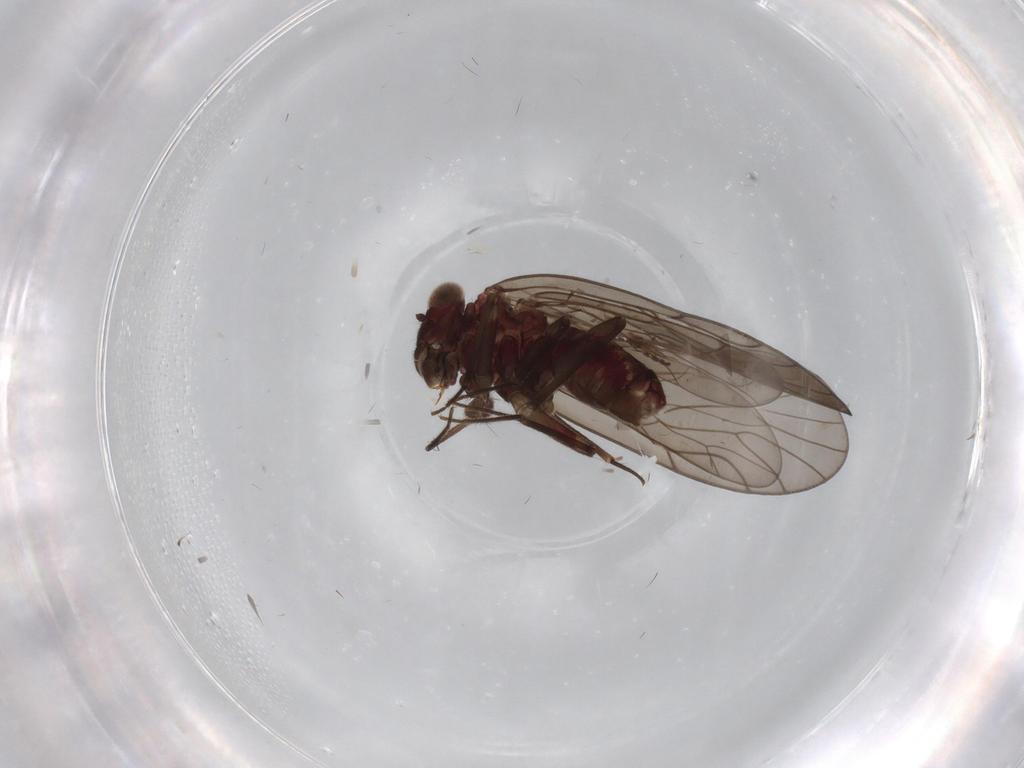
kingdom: Animalia
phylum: Arthropoda
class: Insecta
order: Psocodea
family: Philotarsidae
